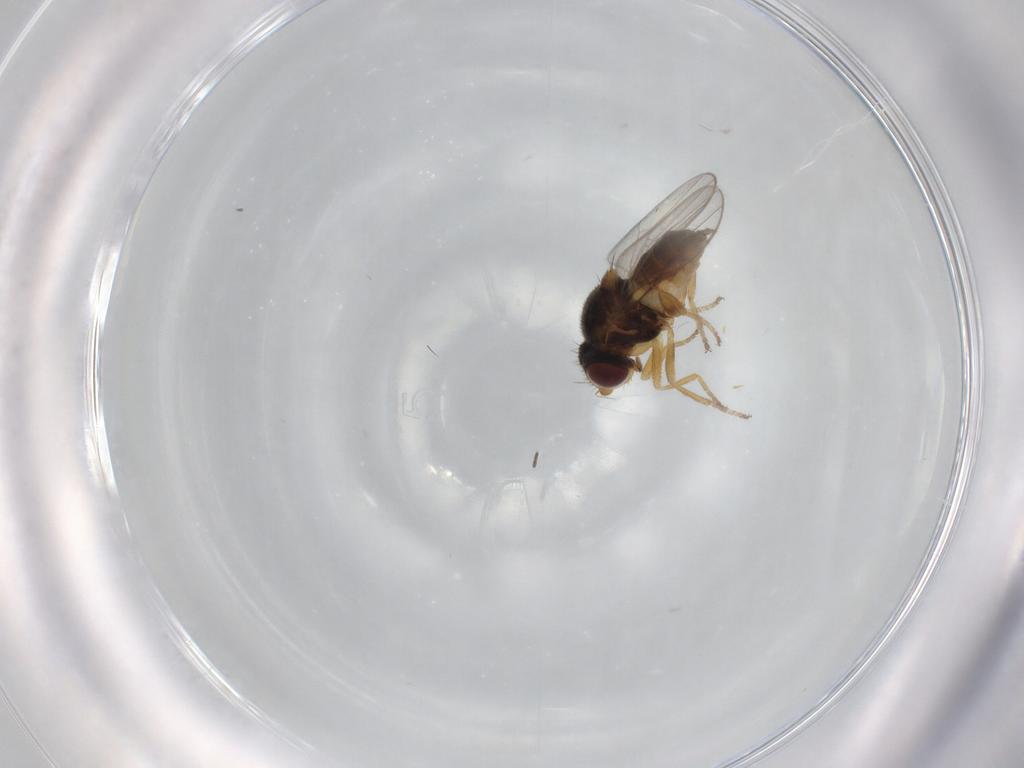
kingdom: Animalia
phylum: Arthropoda
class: Insecta
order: Diptera
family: Chloropidae
